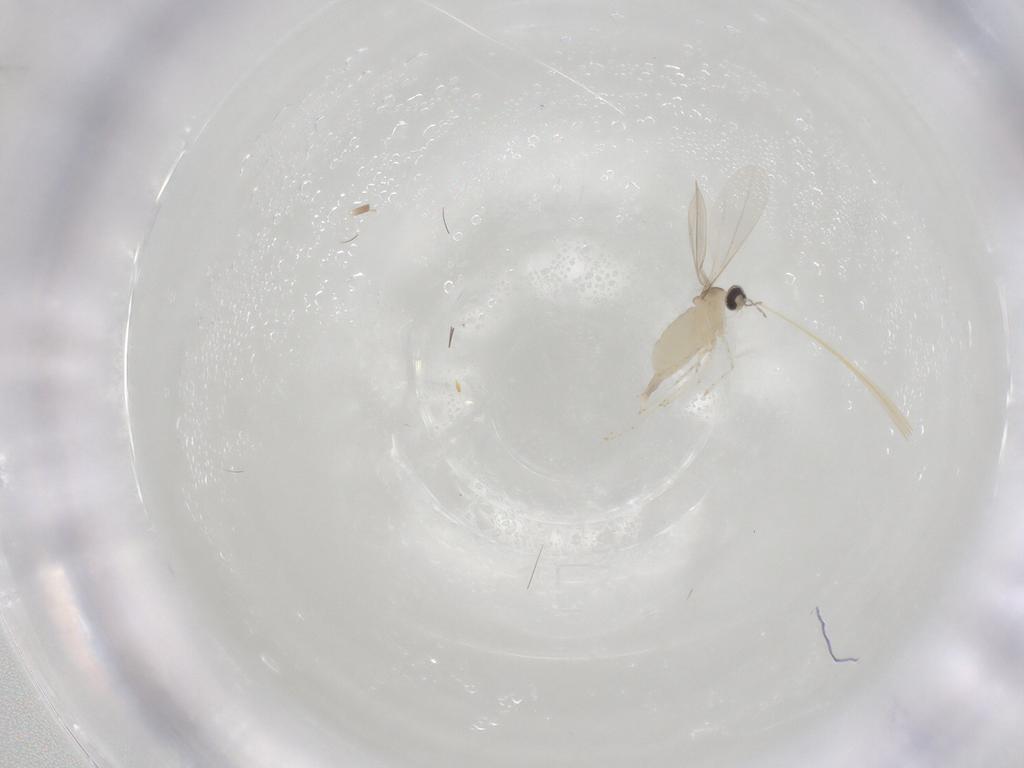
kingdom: Animalia
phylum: Arthropoda
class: Insecta
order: Diptera
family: Cecidomyiidae
